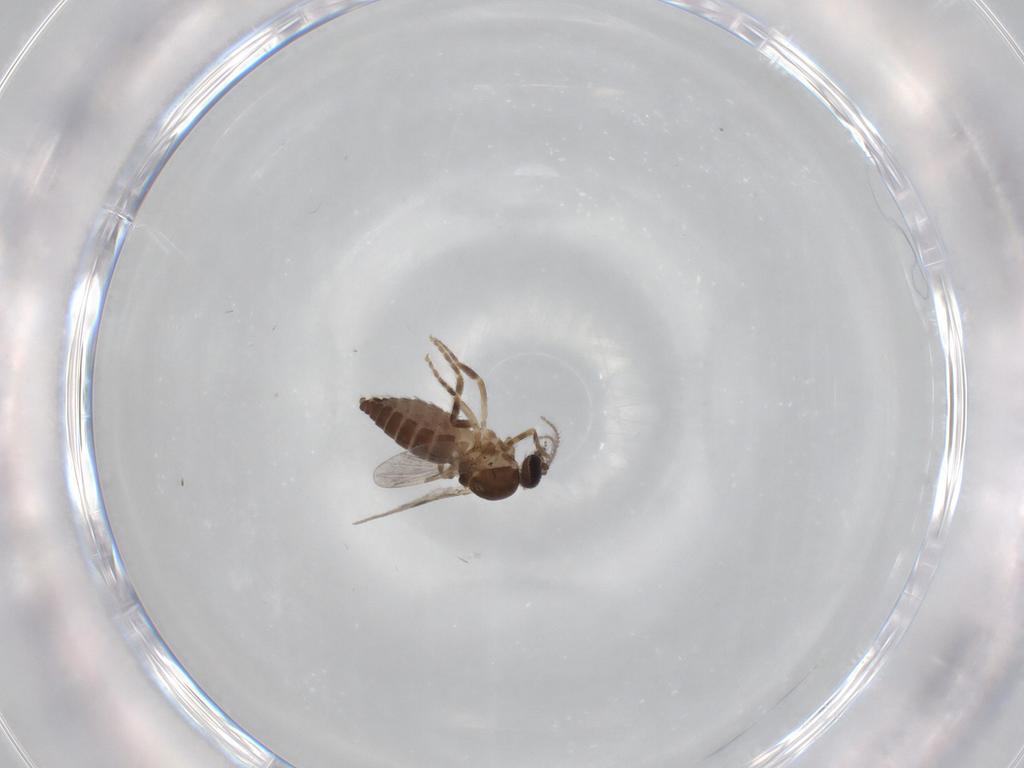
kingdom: Animalia
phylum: Arthropoda
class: Insecta
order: Diptera
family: Ceratopogonidae
